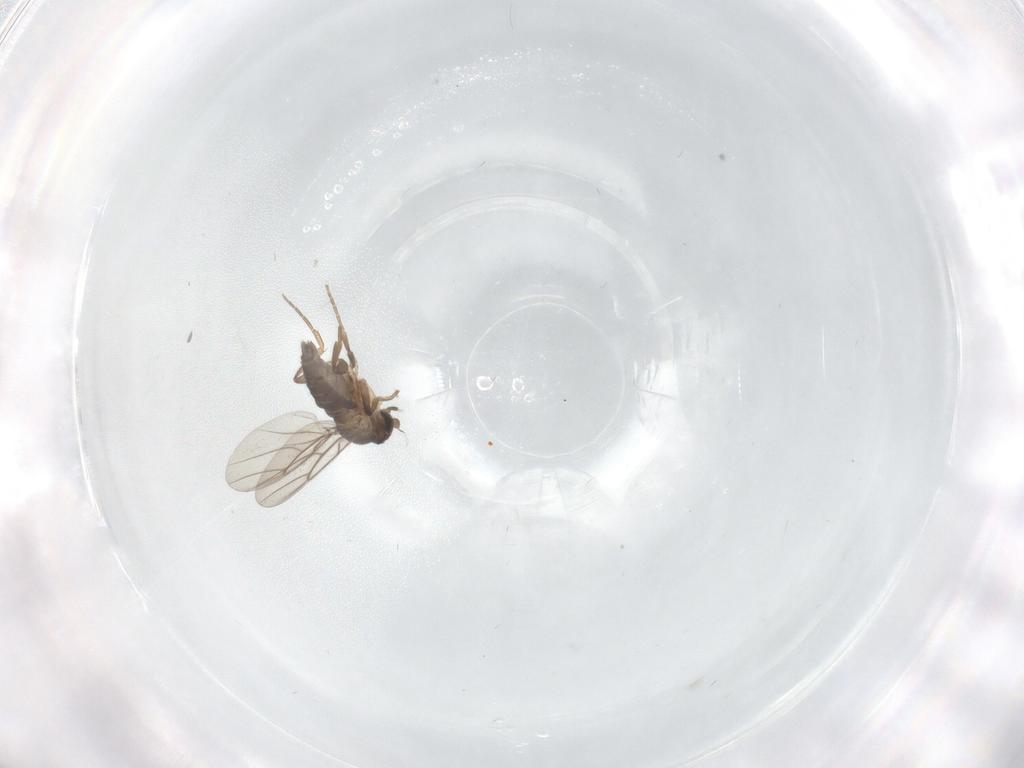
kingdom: Animalia
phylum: Arthropoda
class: Insecta
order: Diptera
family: Phoridae
